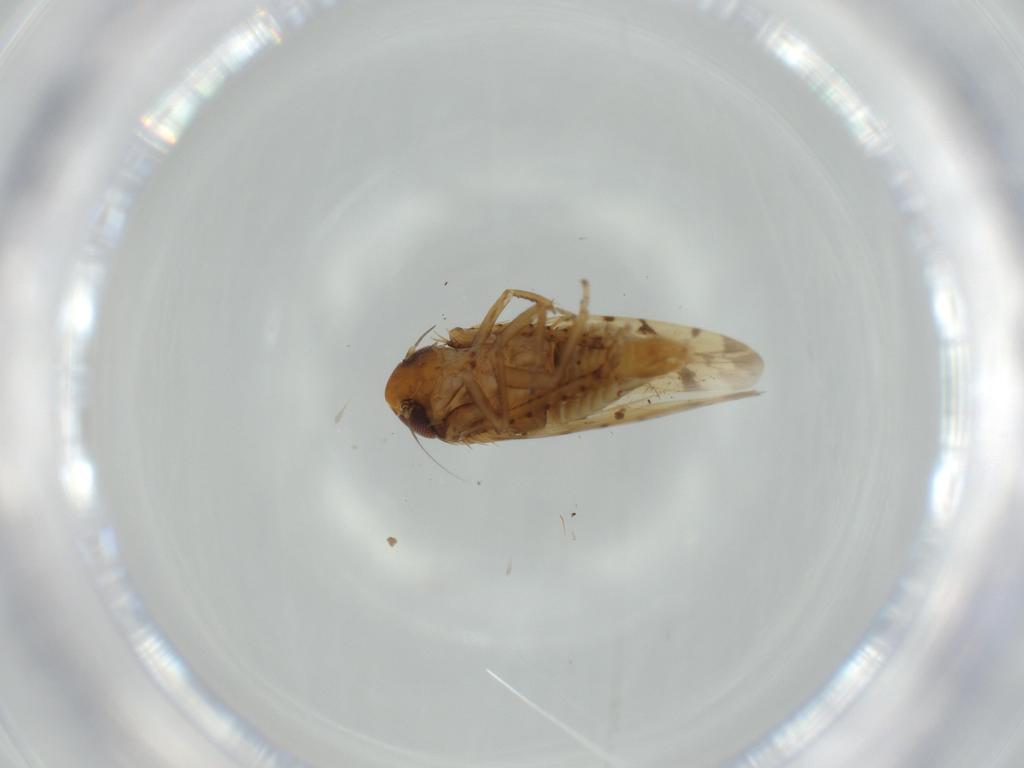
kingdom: Animalia
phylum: Arthropoda
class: Insecta
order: Hemiptera
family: Cicadellidae
